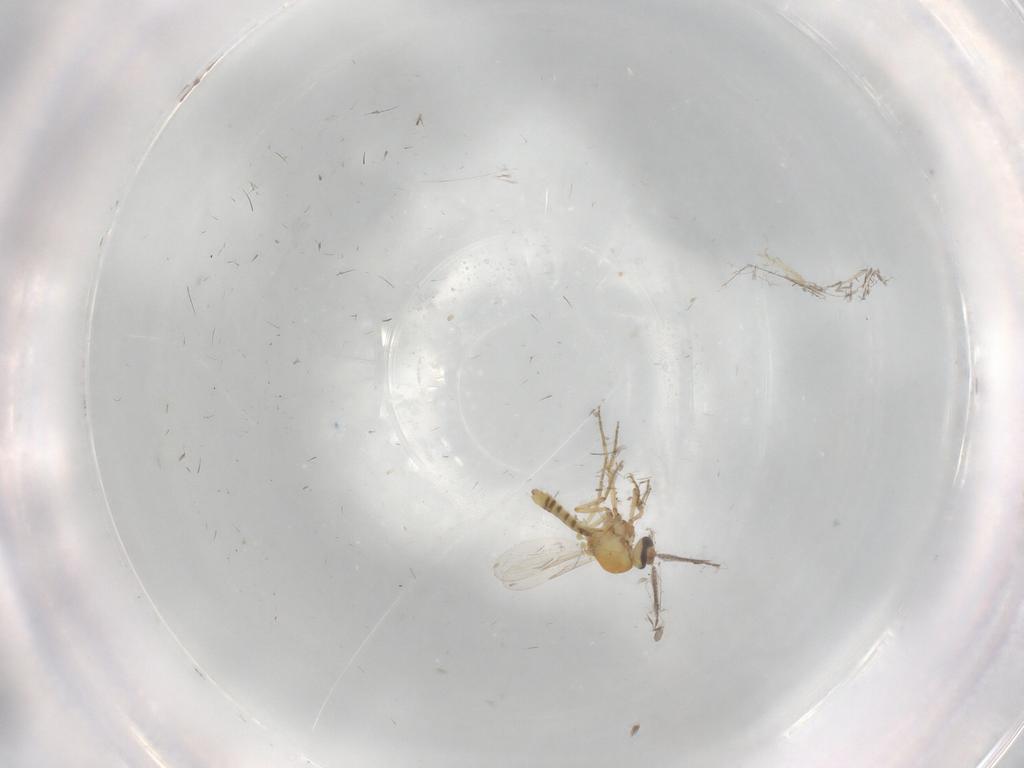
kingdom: Animalia
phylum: Arthropoda
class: Insecta
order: Diptera
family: Ceratopogonidae
